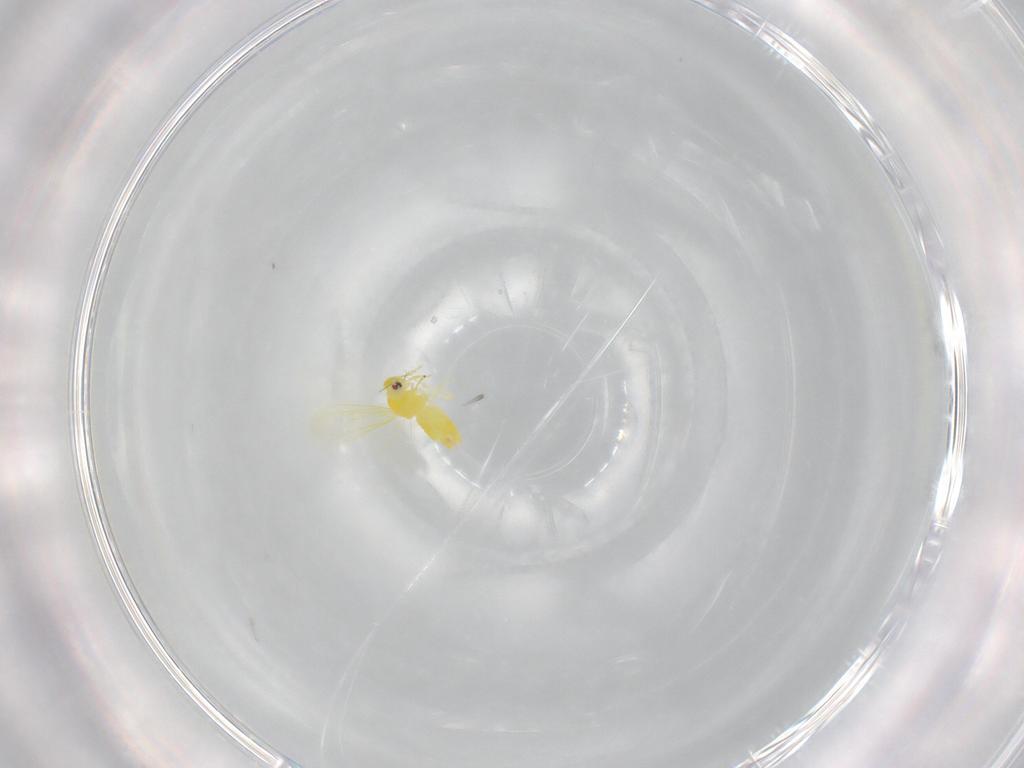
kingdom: Animalia
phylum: Arthropoda
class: Insecta
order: Hemiptera
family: Aleyrodidae
